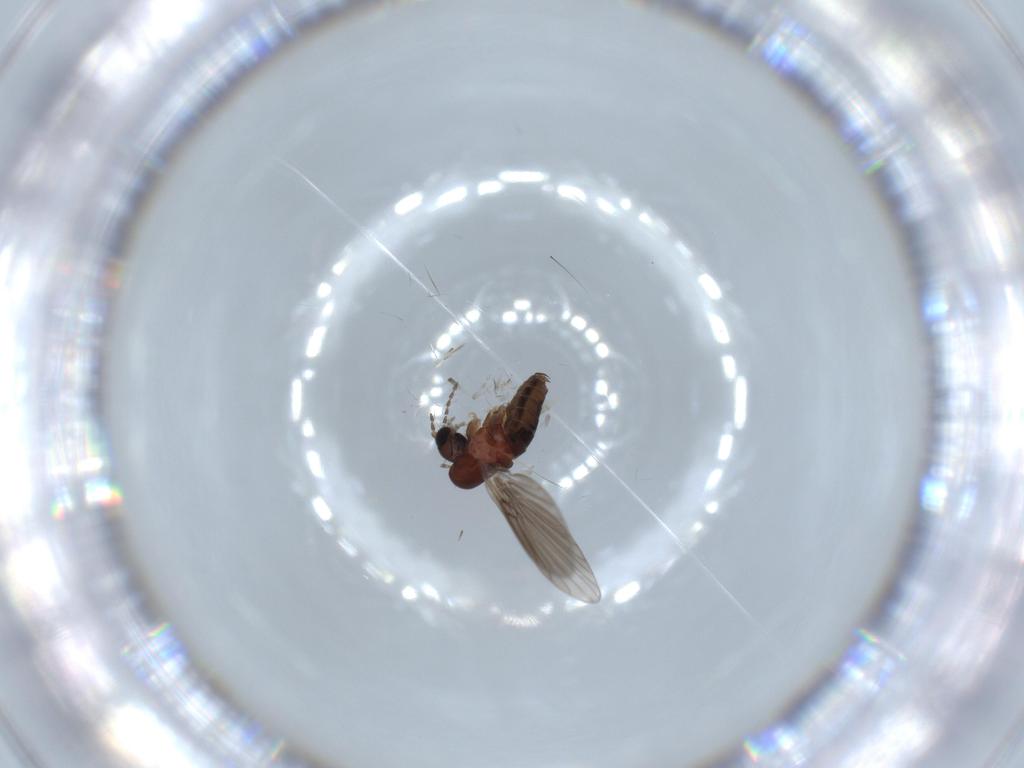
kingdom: Animalia
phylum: Arthropoda
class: Insecta
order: Diptera
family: Psychodidae
